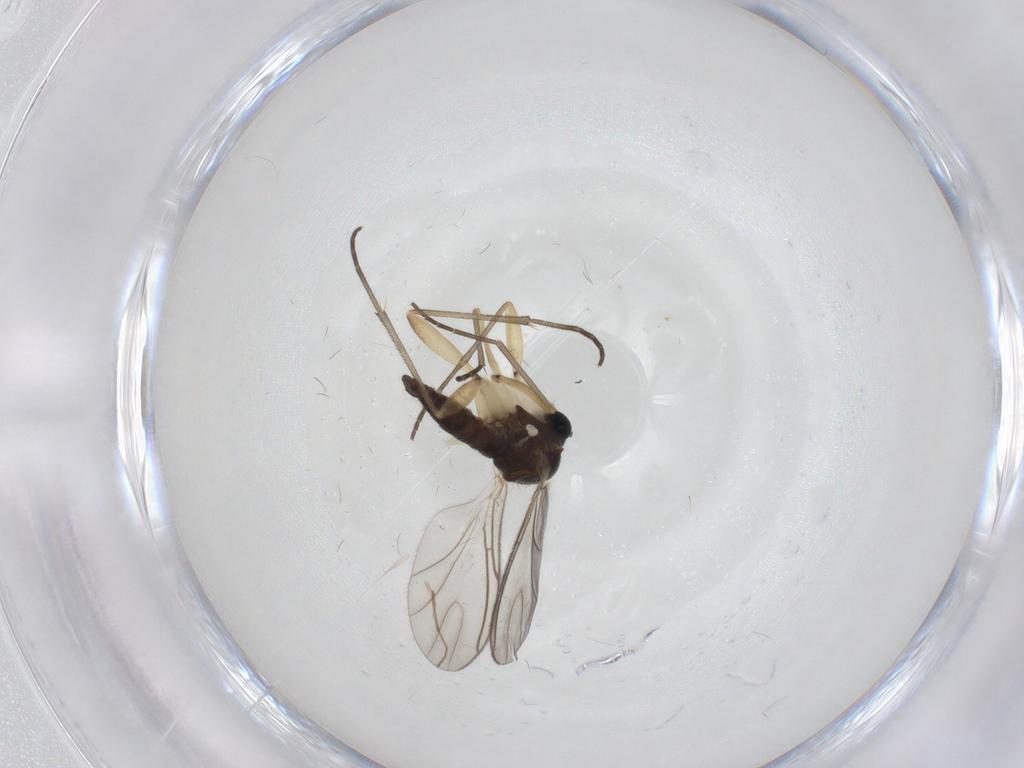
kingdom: Animalia
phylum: Arthropoda
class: Insecta
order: Diptera
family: Sciaridae
